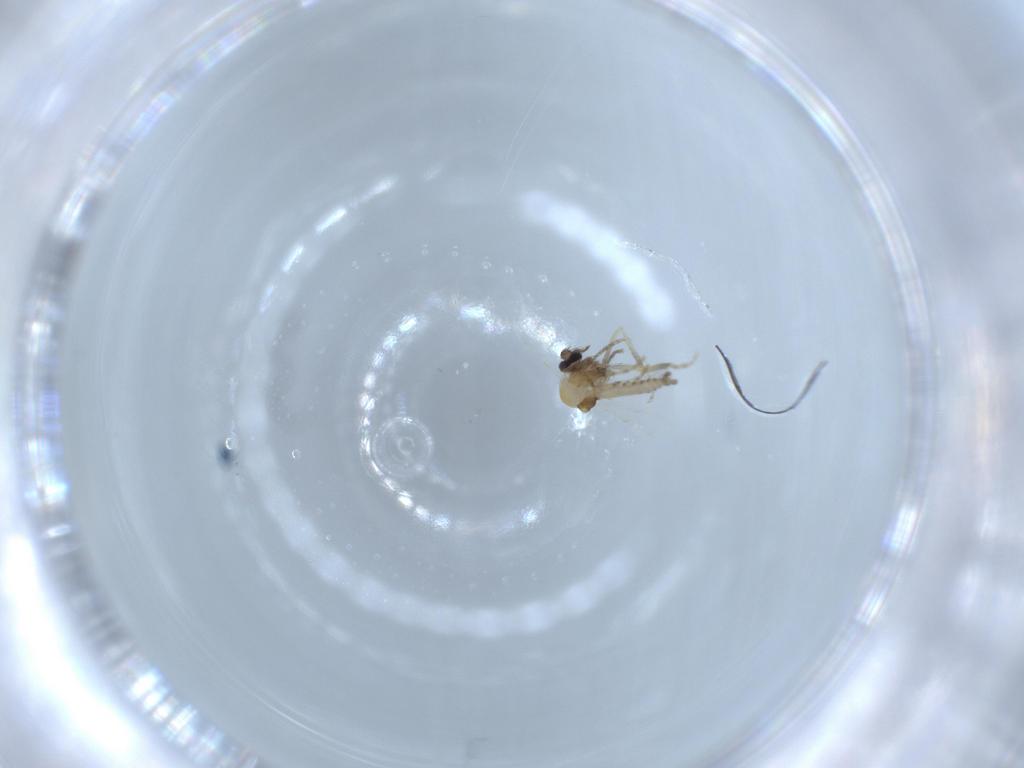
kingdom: Animalia
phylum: Arthropoda
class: Insecta
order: Diptera
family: Ceratopogonidae
